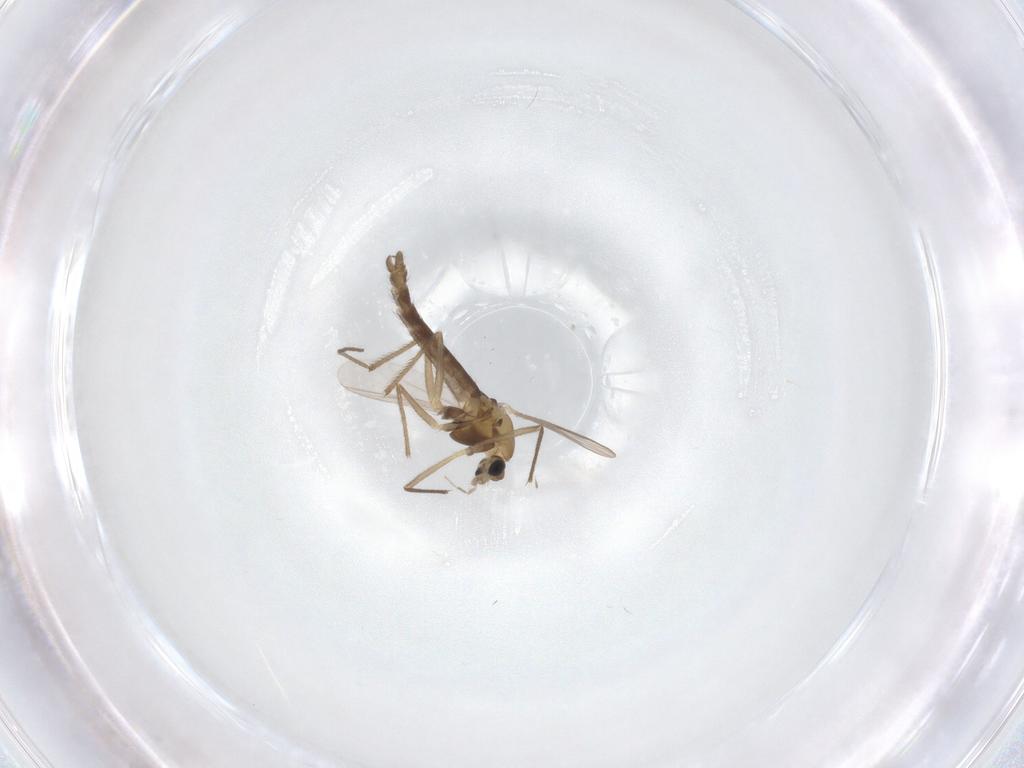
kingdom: Animalia
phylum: Arthropoda
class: Insecta
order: Diptera
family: Chironomidae
